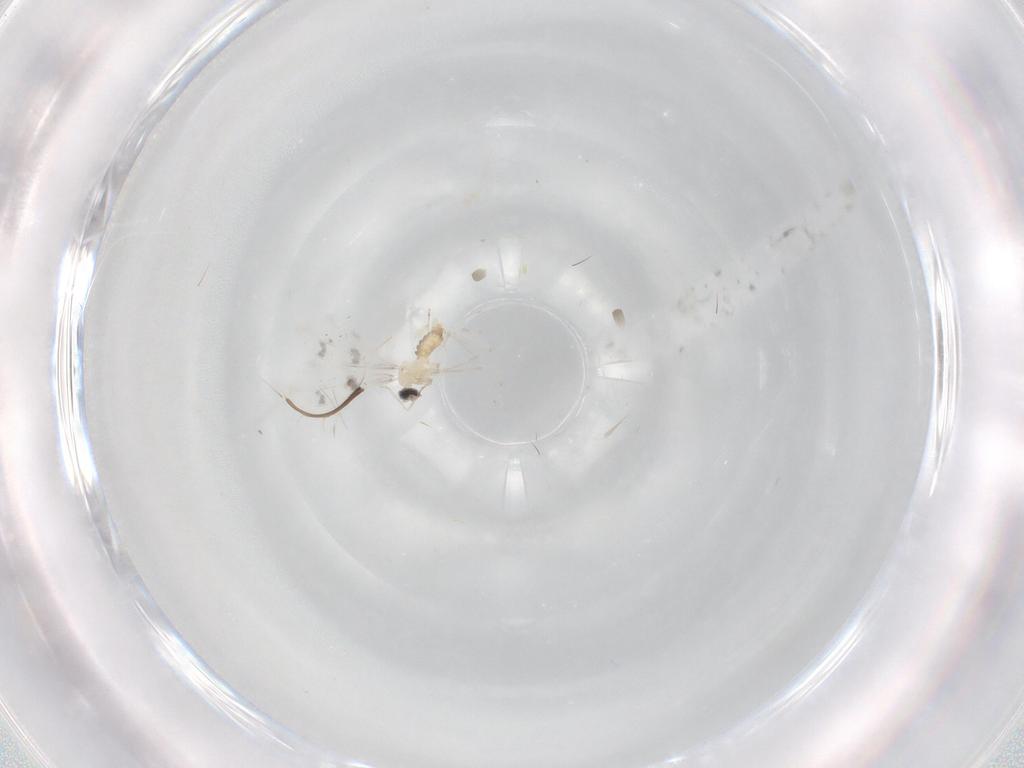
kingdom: Animalia
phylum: Arthropoda
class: Insecta
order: Diptera
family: Cecidomyiidae
